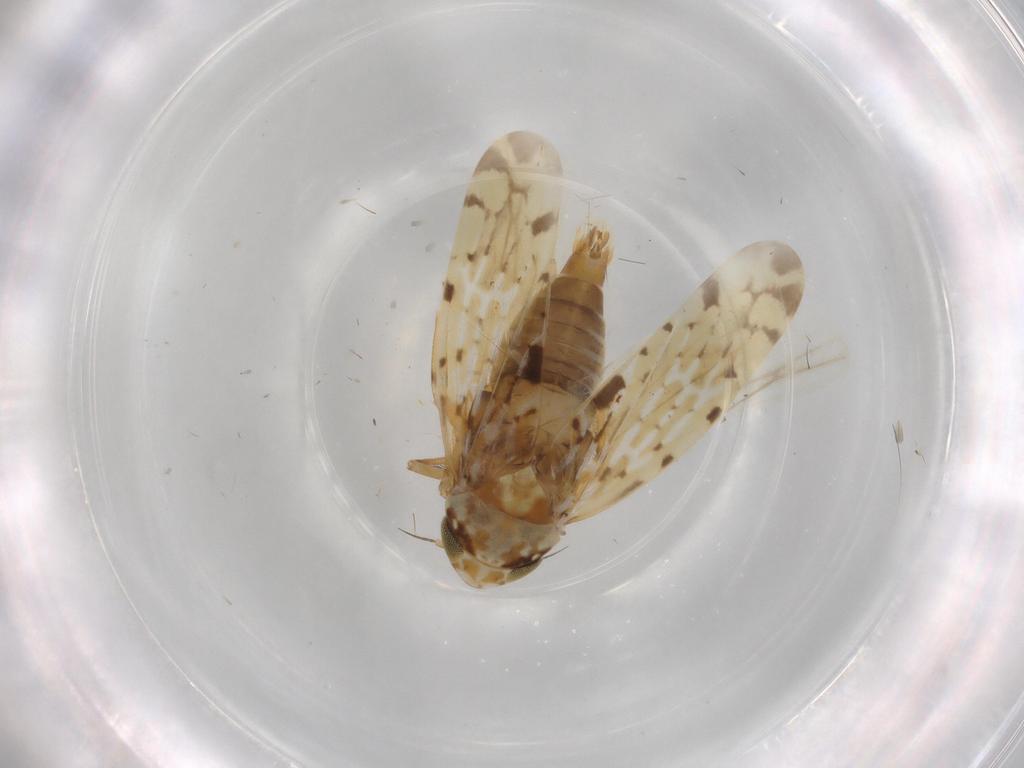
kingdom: Animalia
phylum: Arthropoda
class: Insecta
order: Hemiptera
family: Cicadellidae
